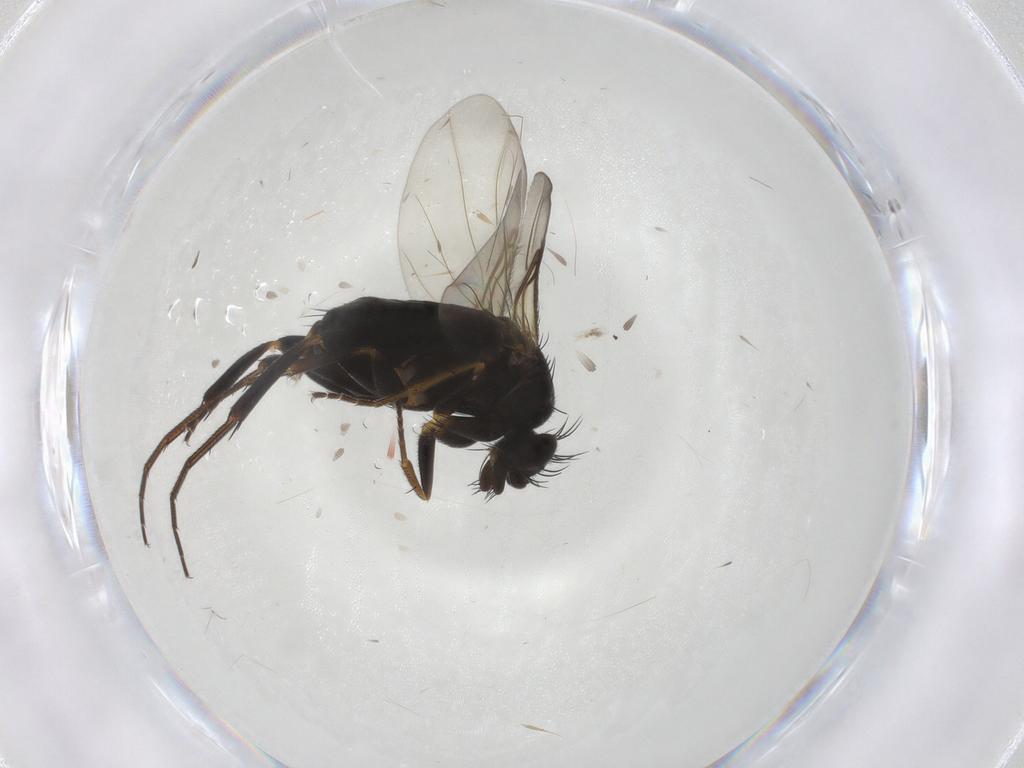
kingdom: Animalia
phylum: Arthropoda
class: Insecta
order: Diptera
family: Phoridae
